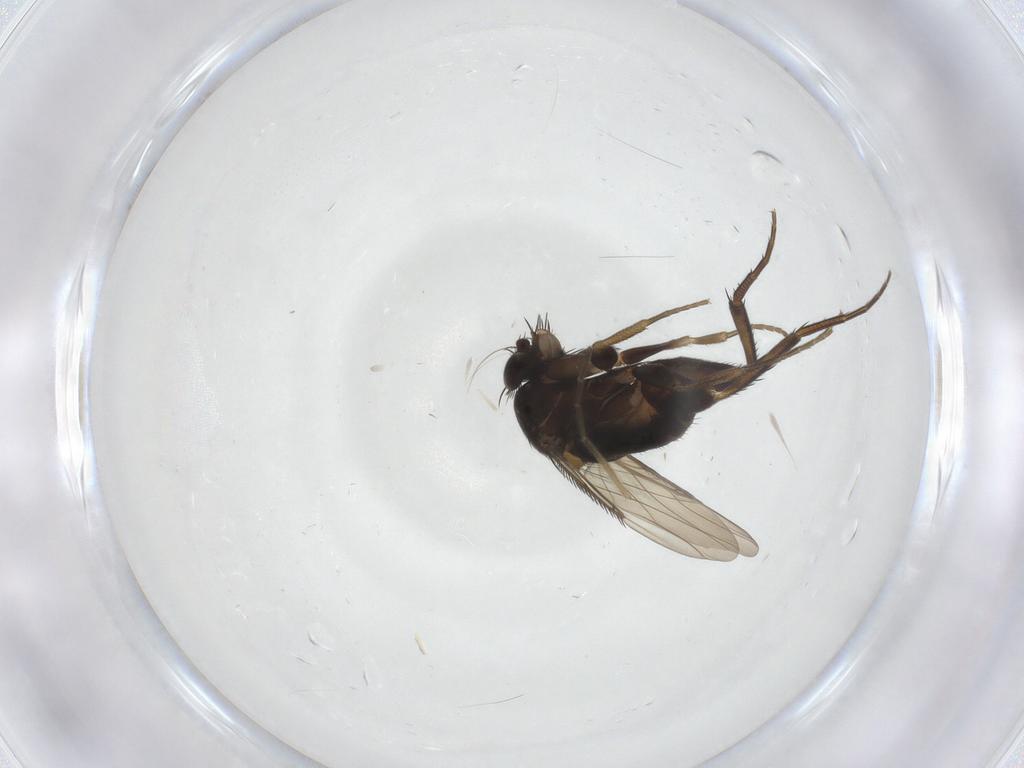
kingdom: Animalia
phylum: Arthropoda
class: Insecta
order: Diptera
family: Phoridae
